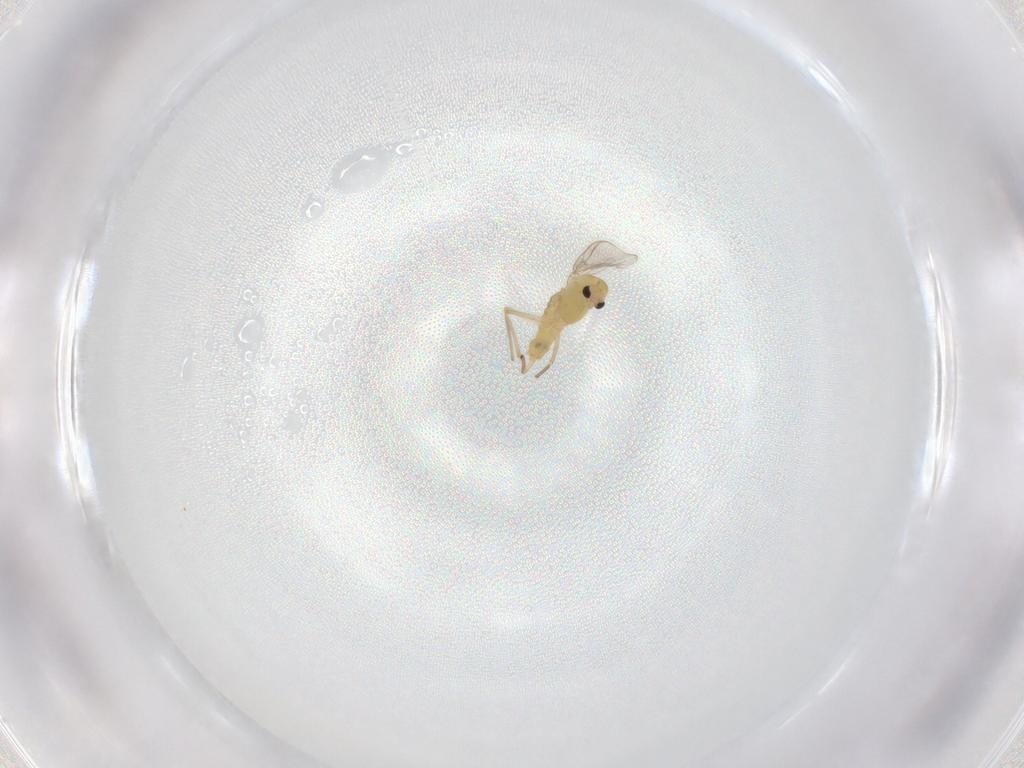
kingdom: Animalia
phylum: Arthropoda
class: Insecta
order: Diptera
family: Chironomidae
